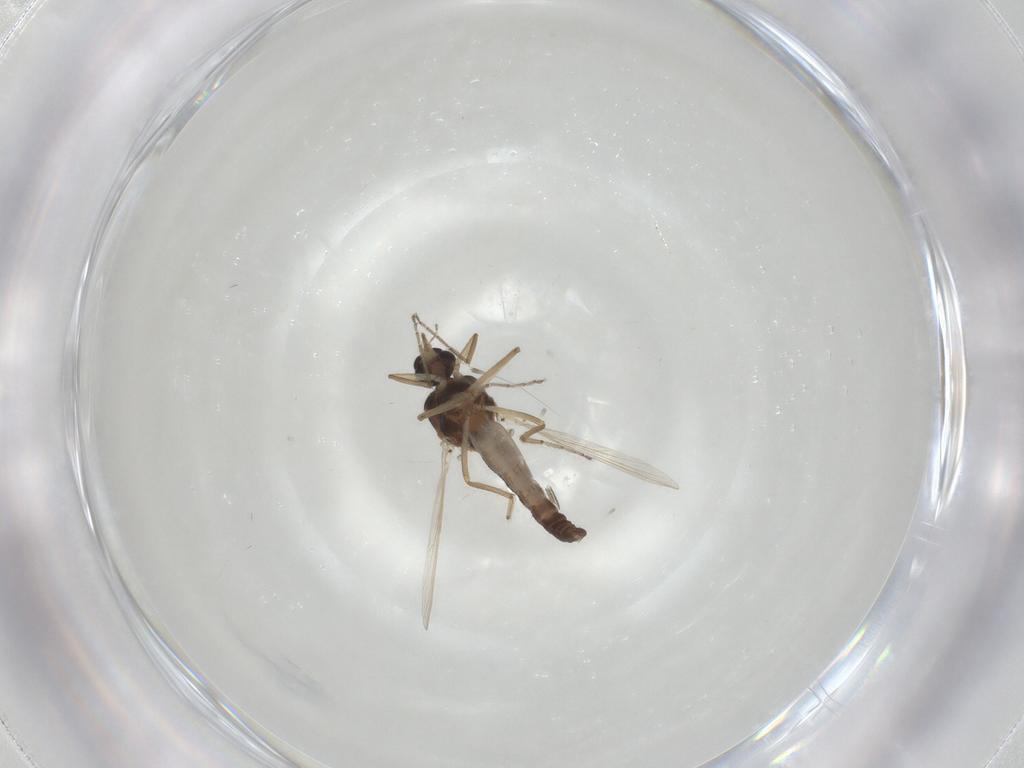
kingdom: Animalia
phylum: Arthropoda
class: Insecta
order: Diptera
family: Ceratopogonidae
